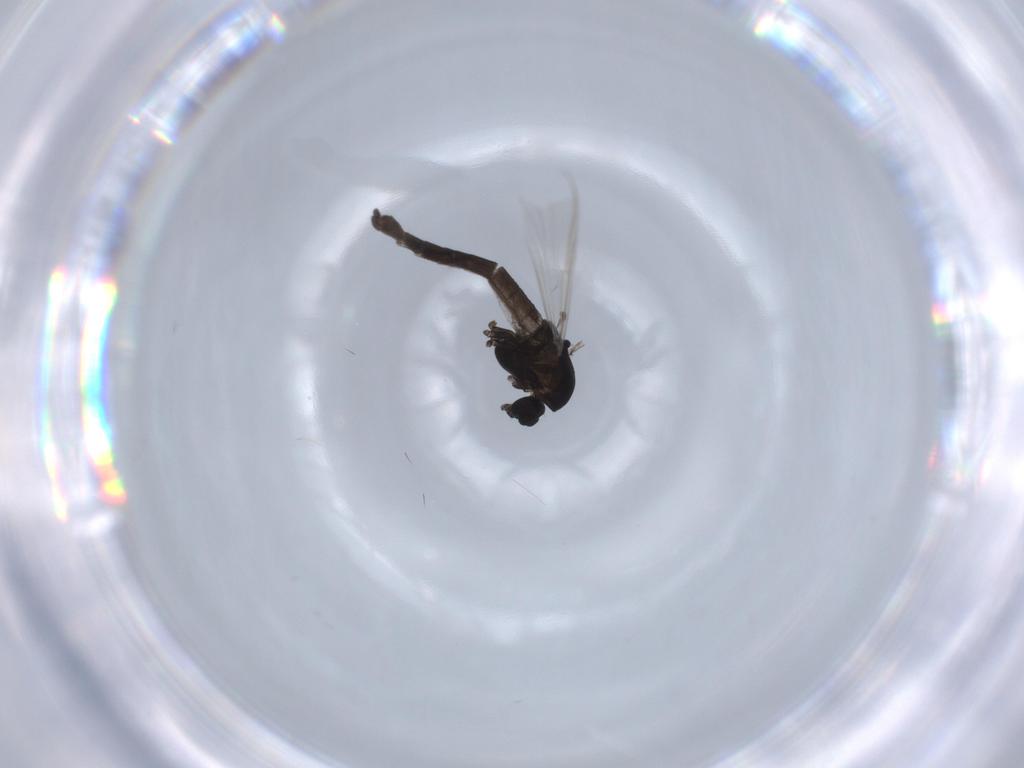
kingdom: Animalia
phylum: Arthropoda
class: Insecta
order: Diptera
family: Chironomidae
